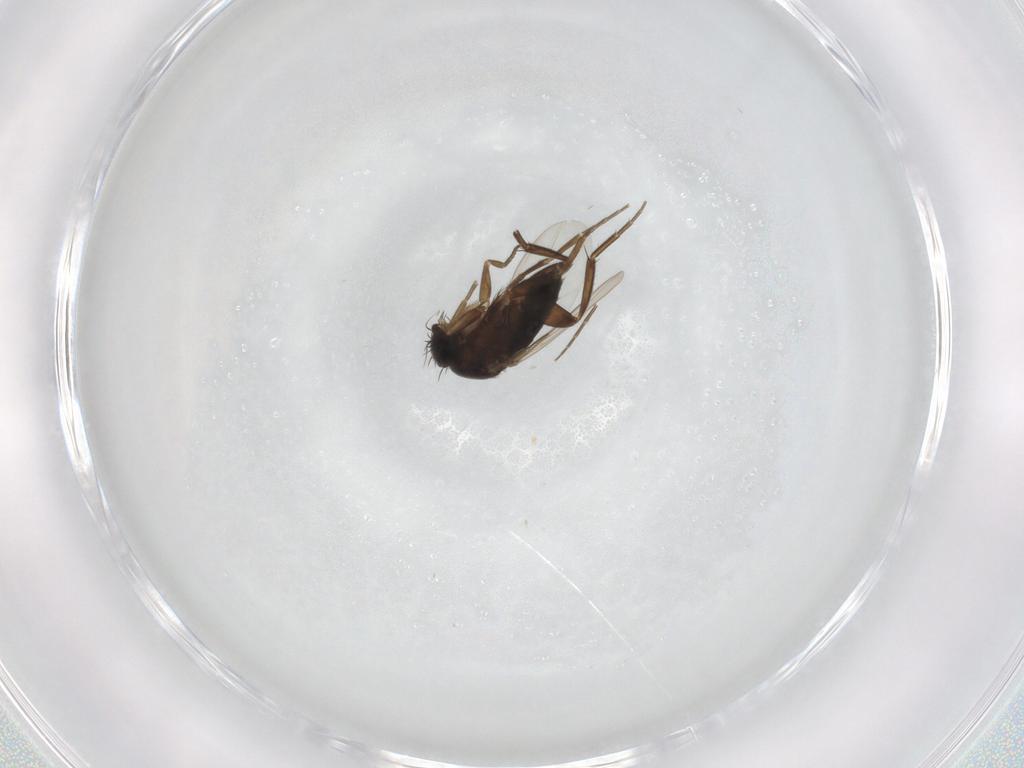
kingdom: Animalia
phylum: Arthropoda
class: Insecta
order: Diptera
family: Phoridae
